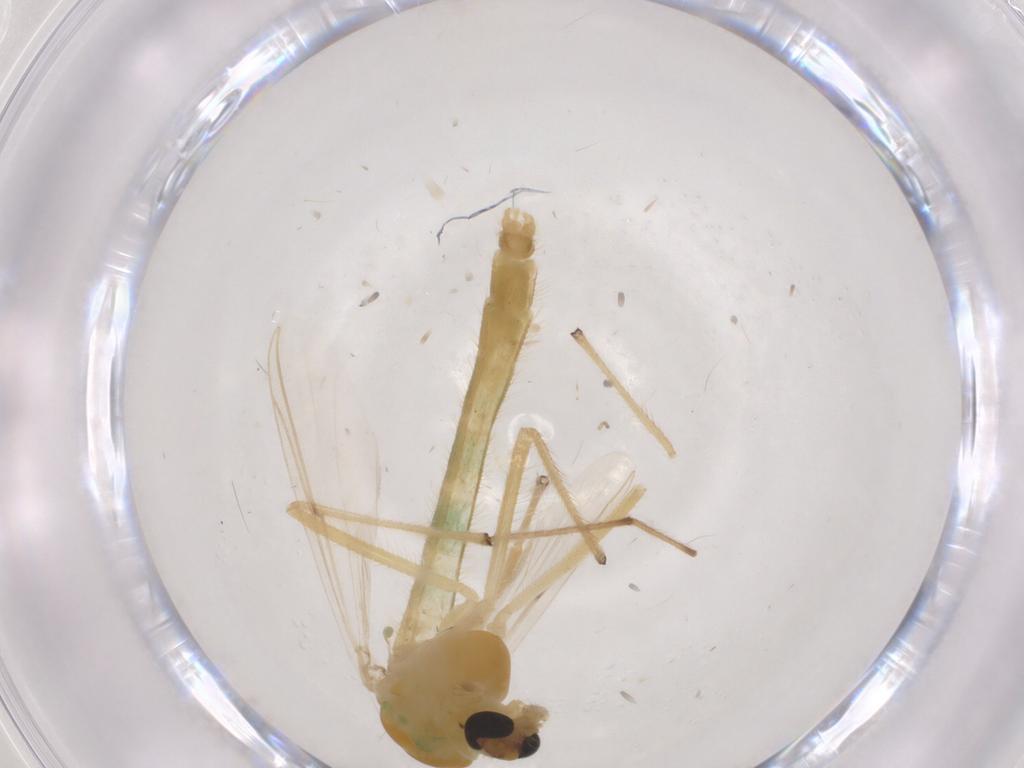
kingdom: Animalia
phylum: Arthropoda
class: Insecta
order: Diptera
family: Chironomidae
